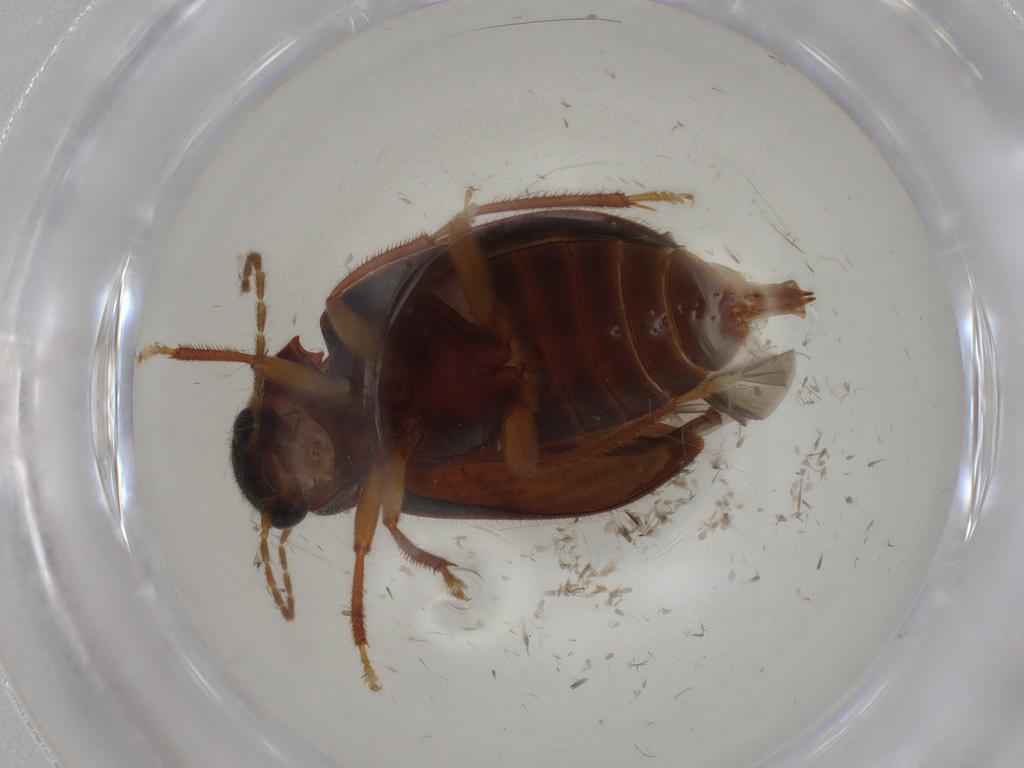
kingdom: Animalia
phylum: Arthropoda
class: Insecta
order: Coleoptera
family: Ptilodactylidae
